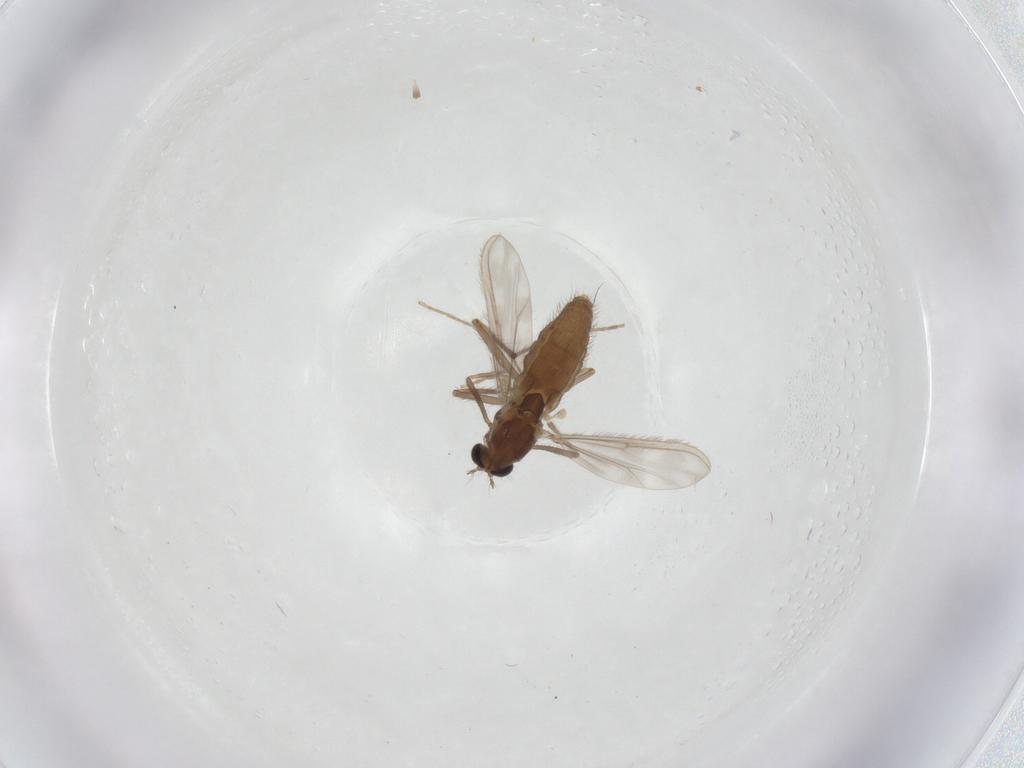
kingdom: Animalia
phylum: Arthropoda
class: Insecta
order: Diptera
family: Chironomidae
